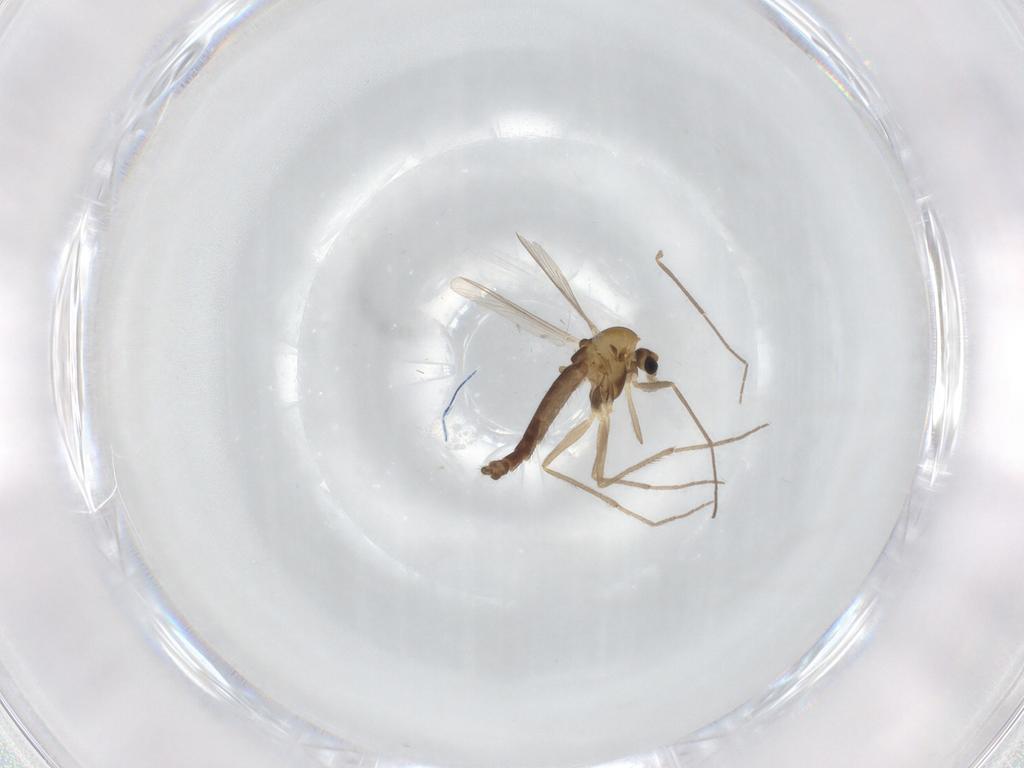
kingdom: Animalia
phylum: Arthropoda
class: Insecta
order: Diptera
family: Chironomidae
